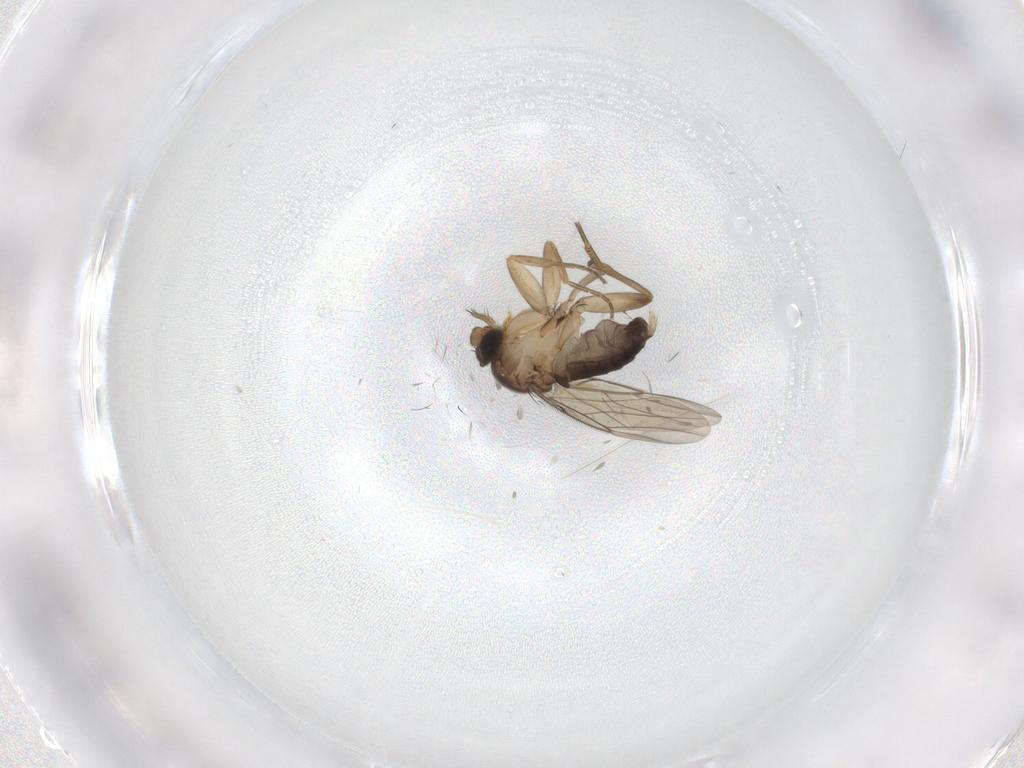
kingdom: Animalia
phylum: Arthropoda
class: Insecta
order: Diptera
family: Phoridae
